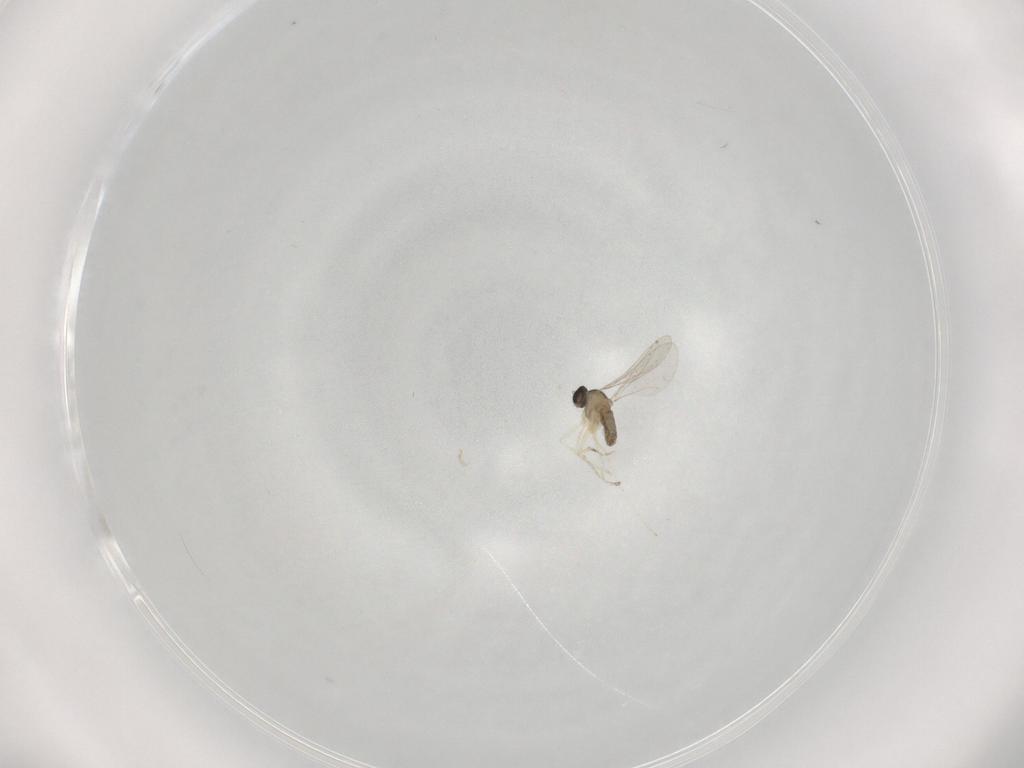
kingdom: Animalia
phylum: Arthropoda
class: Insecta
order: Diptera
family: Cecidomyiidae
